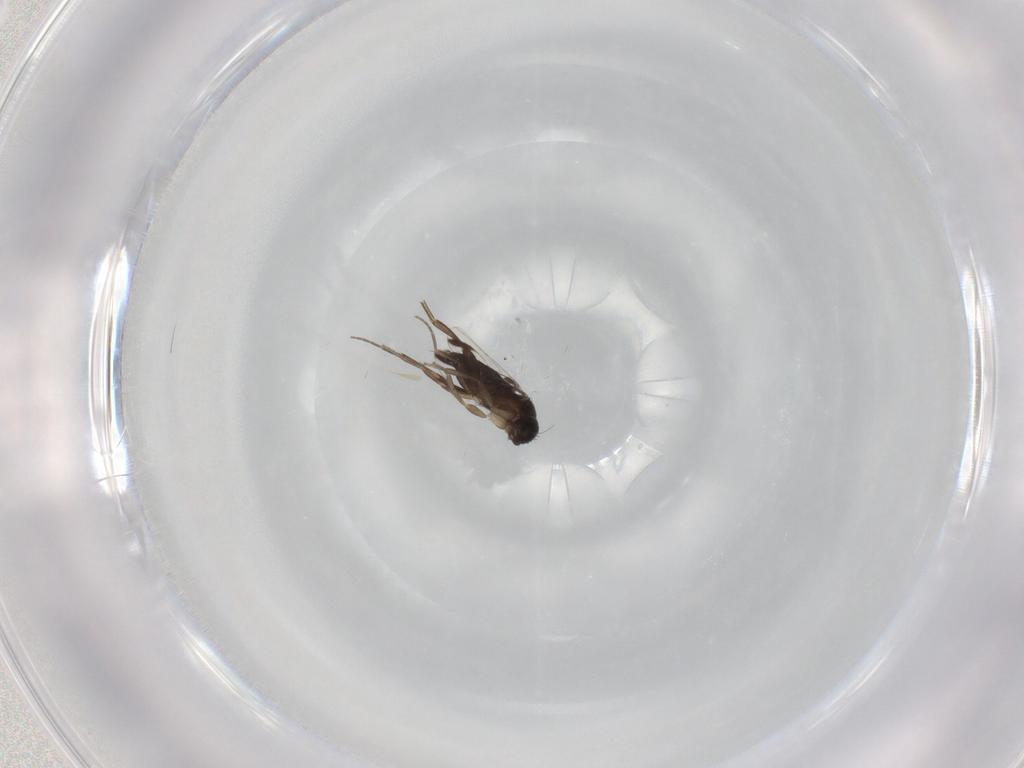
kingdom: Animalia
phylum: Arthropoda
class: Insecta
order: Diptera
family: Phoridae
